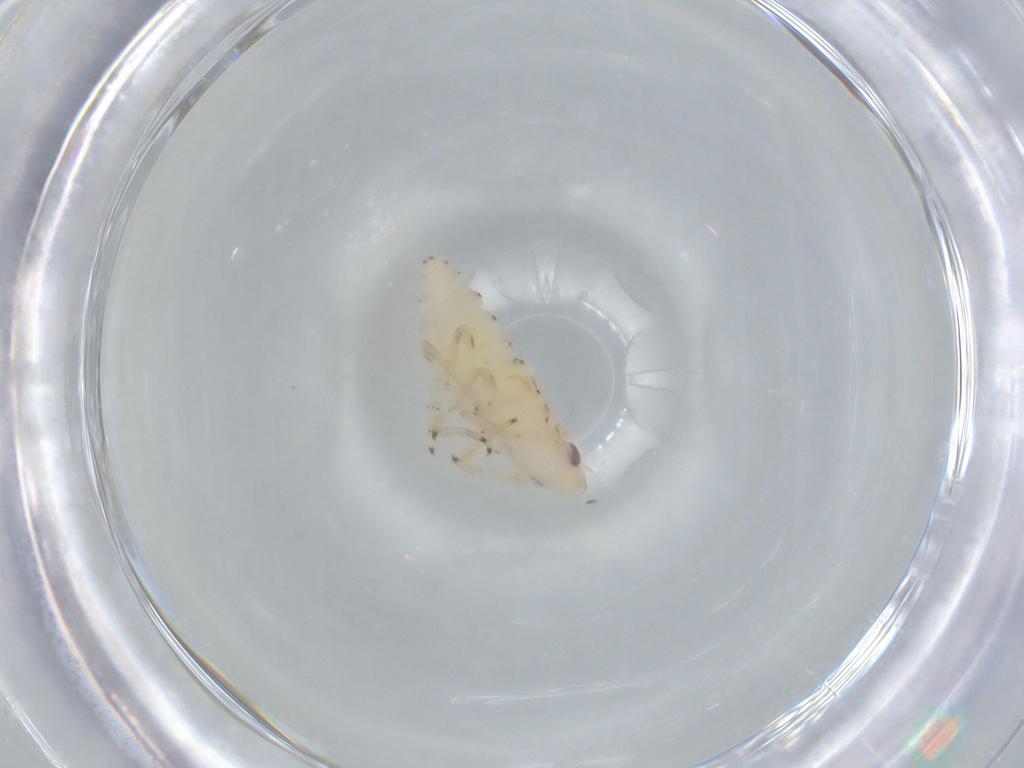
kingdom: Animalia
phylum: Arthropoda
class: Insecta
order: Hemiptera
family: Tropiduchidae
